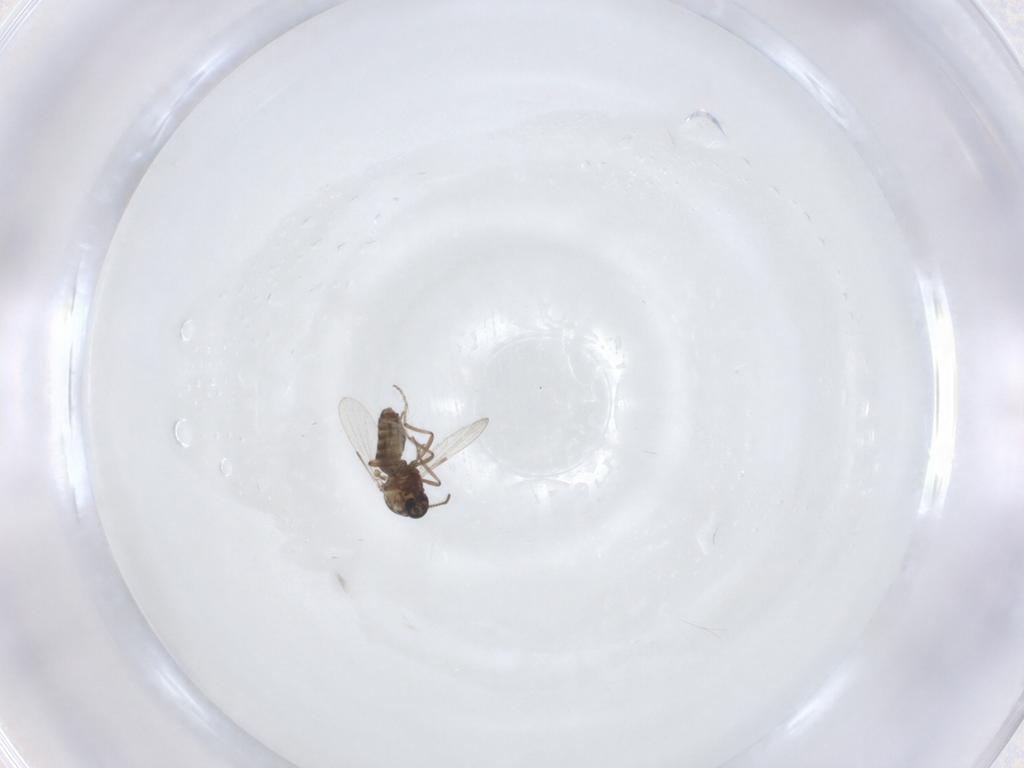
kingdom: Animalia
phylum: Arthropoda
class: Insecta
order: Diptera
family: Ceratopogonidae
